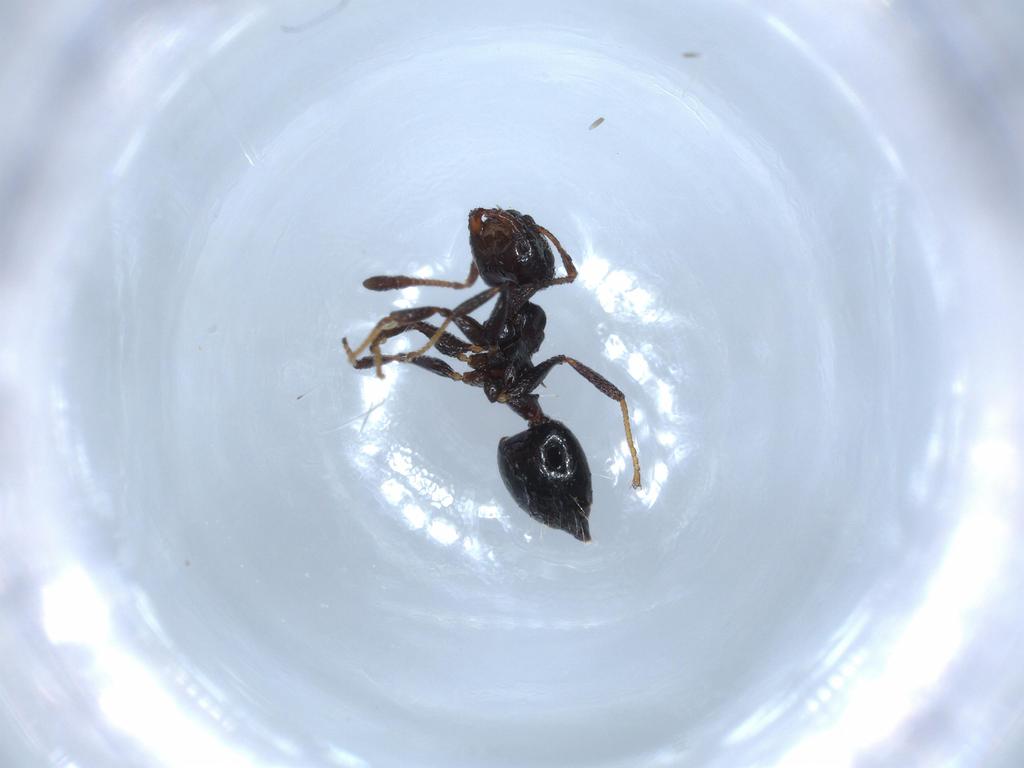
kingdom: Animalia
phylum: Arthropoda
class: Insecta
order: Hymenoptera
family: Formicidae
